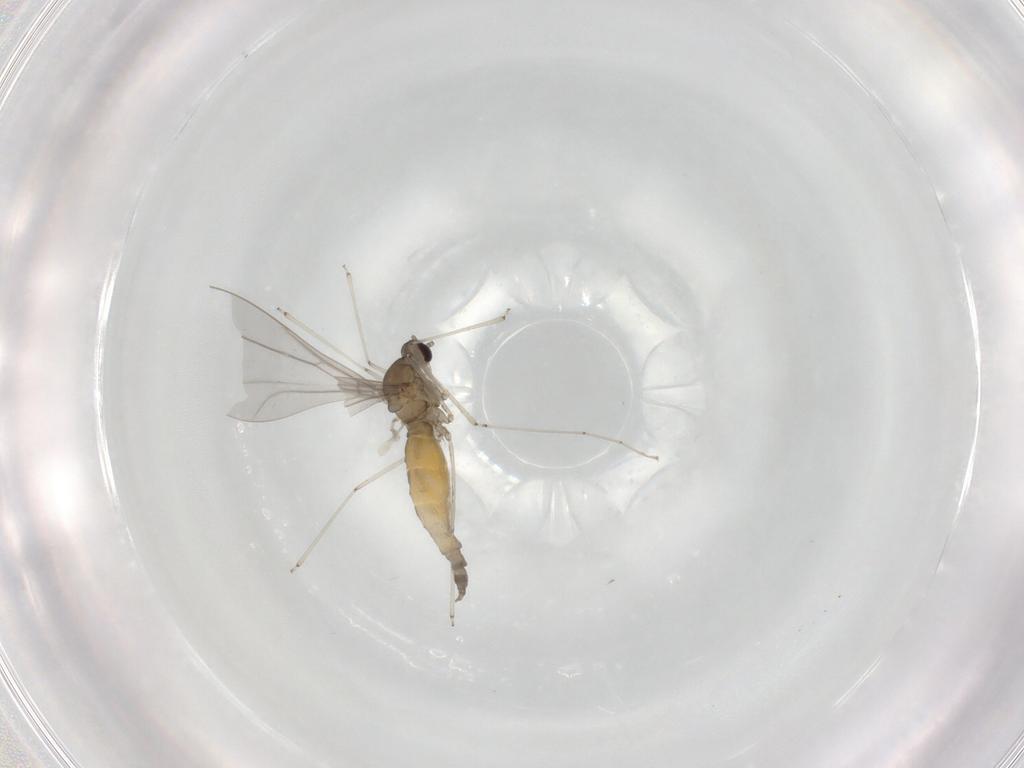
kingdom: Animalia
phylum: Arthropoda
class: Insecta
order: Diptera
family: Cecidomyiidae
